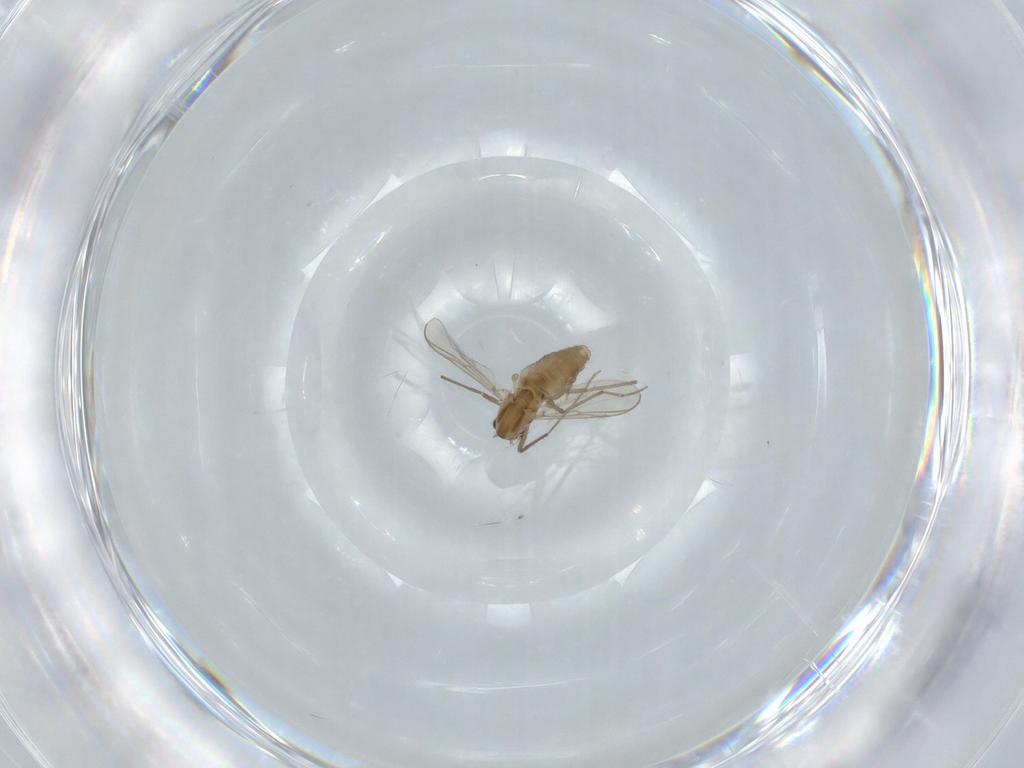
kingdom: Animalia
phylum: Arthropoda
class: Insecta
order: Diptera
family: Chironomidae
